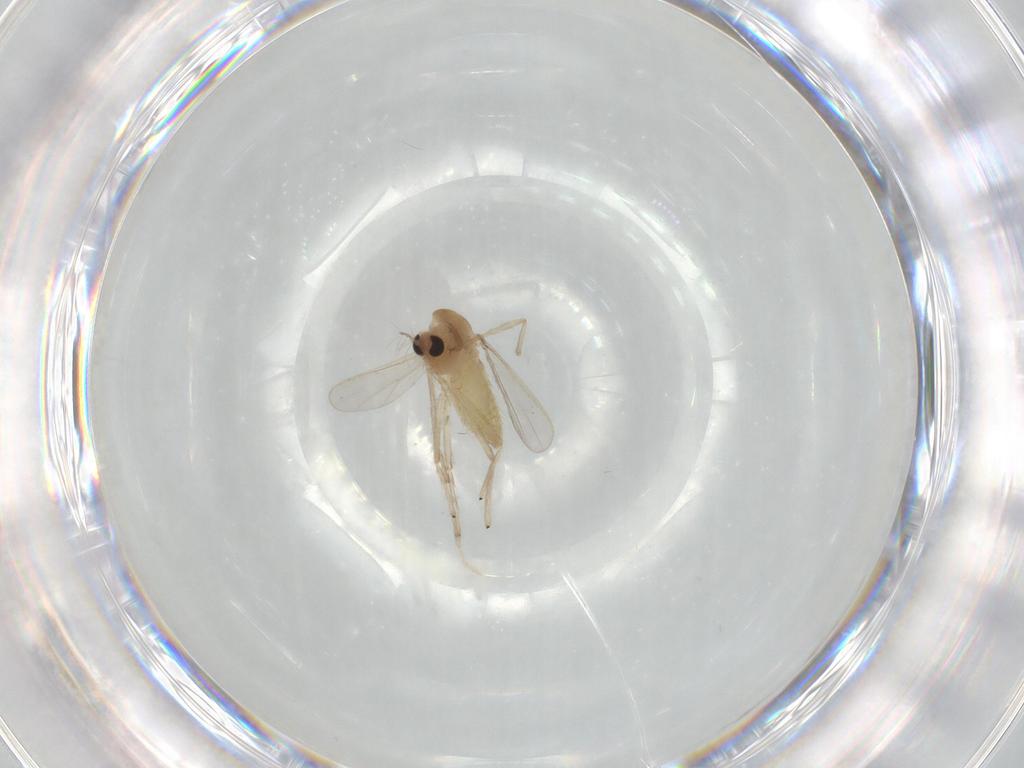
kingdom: Animalia
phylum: Arthropoda
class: Insecta
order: Diptera
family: Chironomidae
